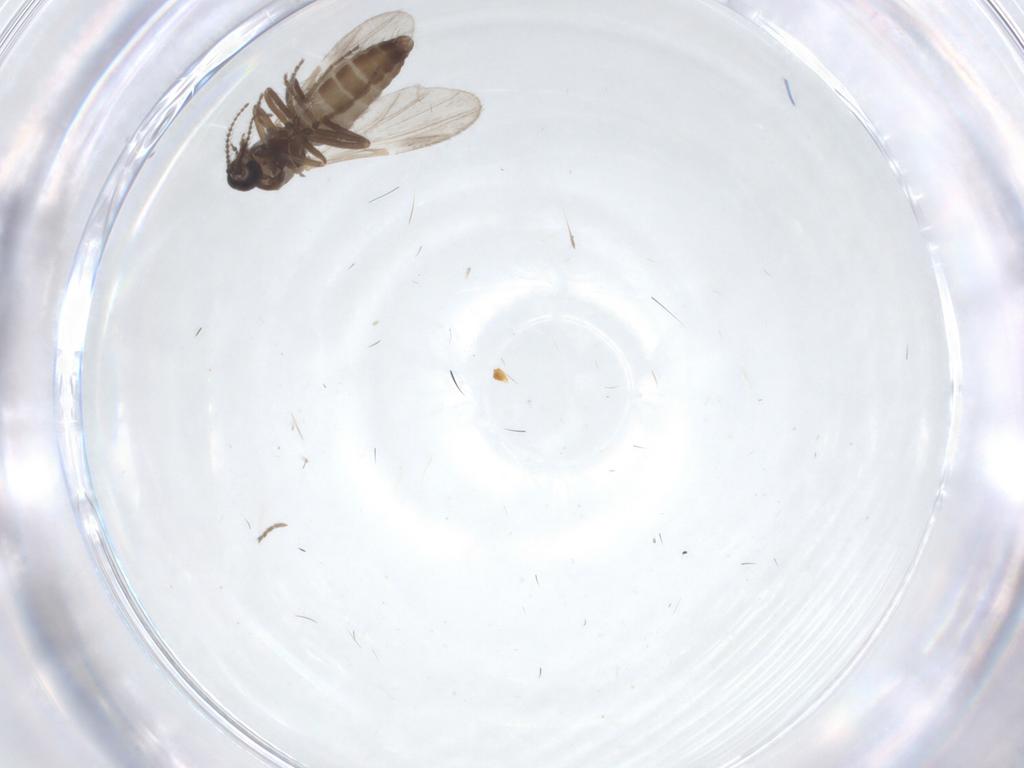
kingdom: Animalia
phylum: Arthropoda
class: Insecta
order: Diptera
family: Ceratopogonidae
